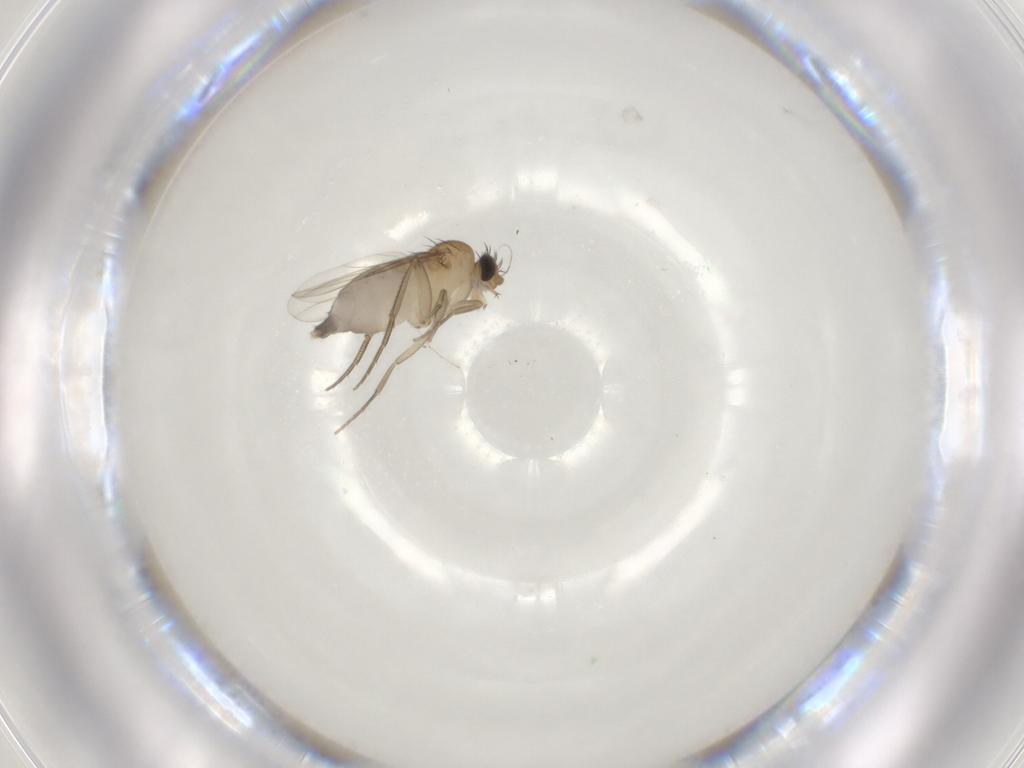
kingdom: Animalia
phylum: Arthropoda
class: Insecta
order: Diptera
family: Phoridae
